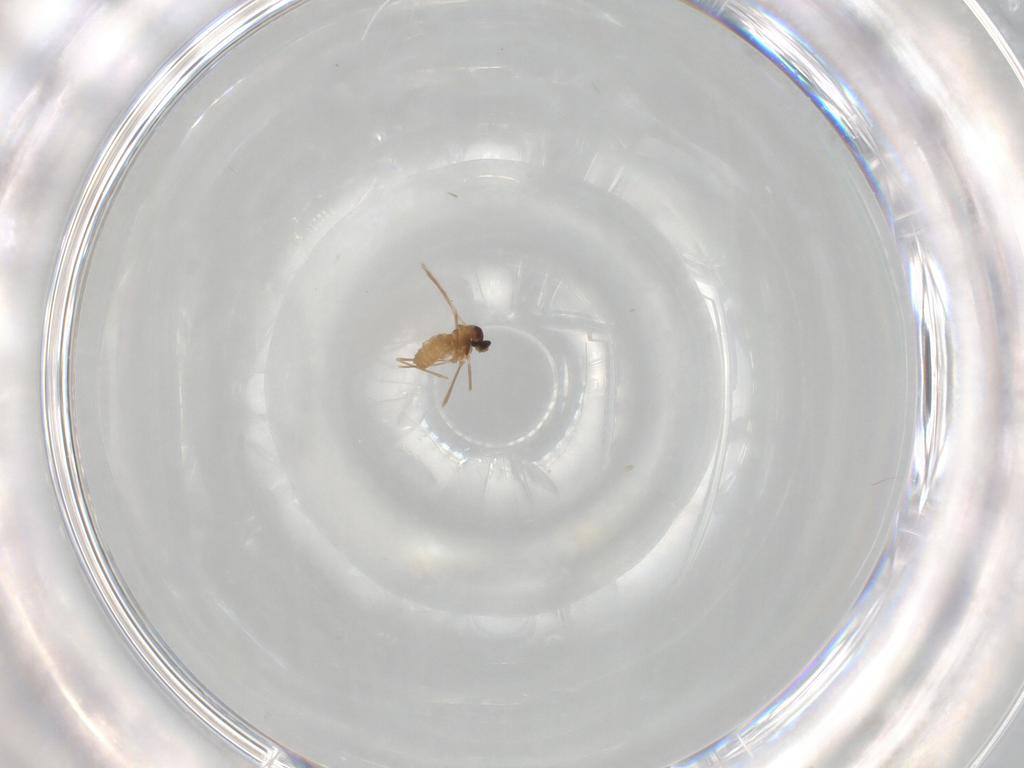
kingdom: Animalia
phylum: Arthropoda
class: Insecta
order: Diptera
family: Cecidomyiidae
